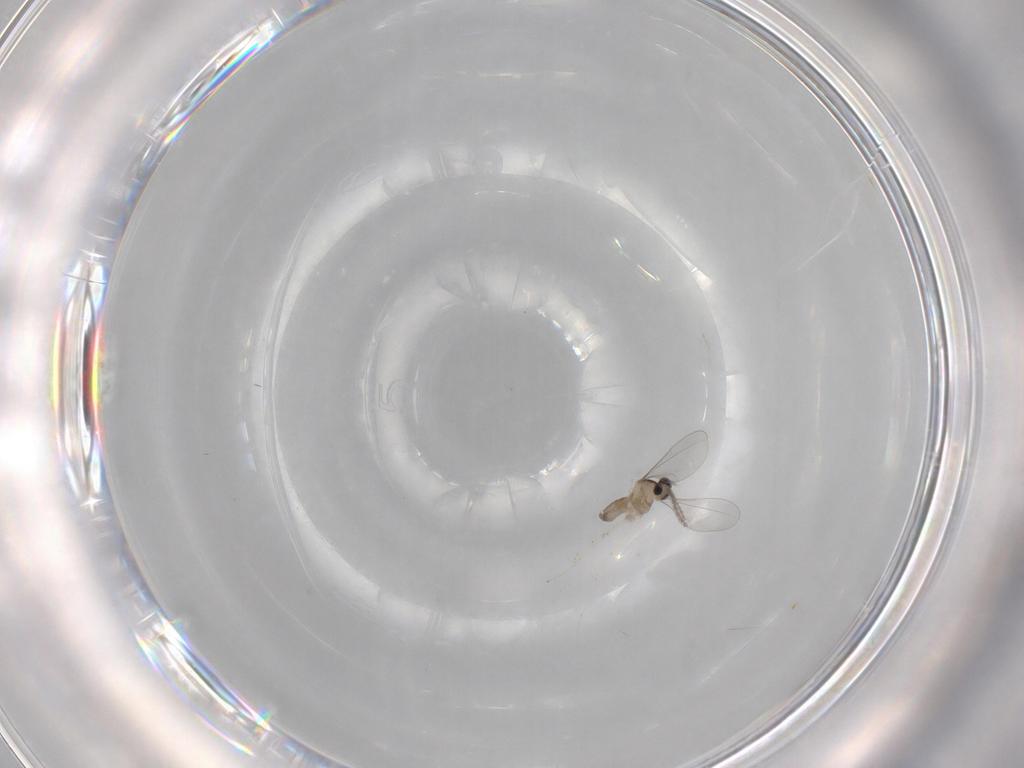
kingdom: Animalia
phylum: Arthropoda
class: Insecta
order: Diptera
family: Cecidomyiidae
